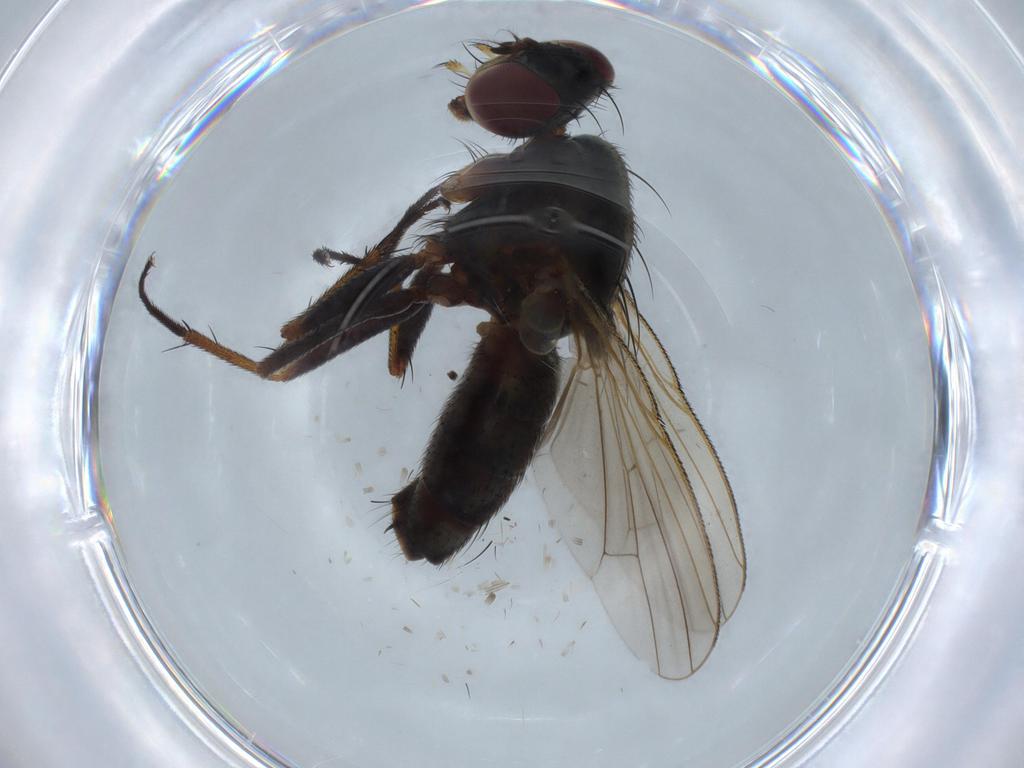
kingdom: Animalia
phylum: Arthropoda
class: Insecta
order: Diptera
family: Muscidae
